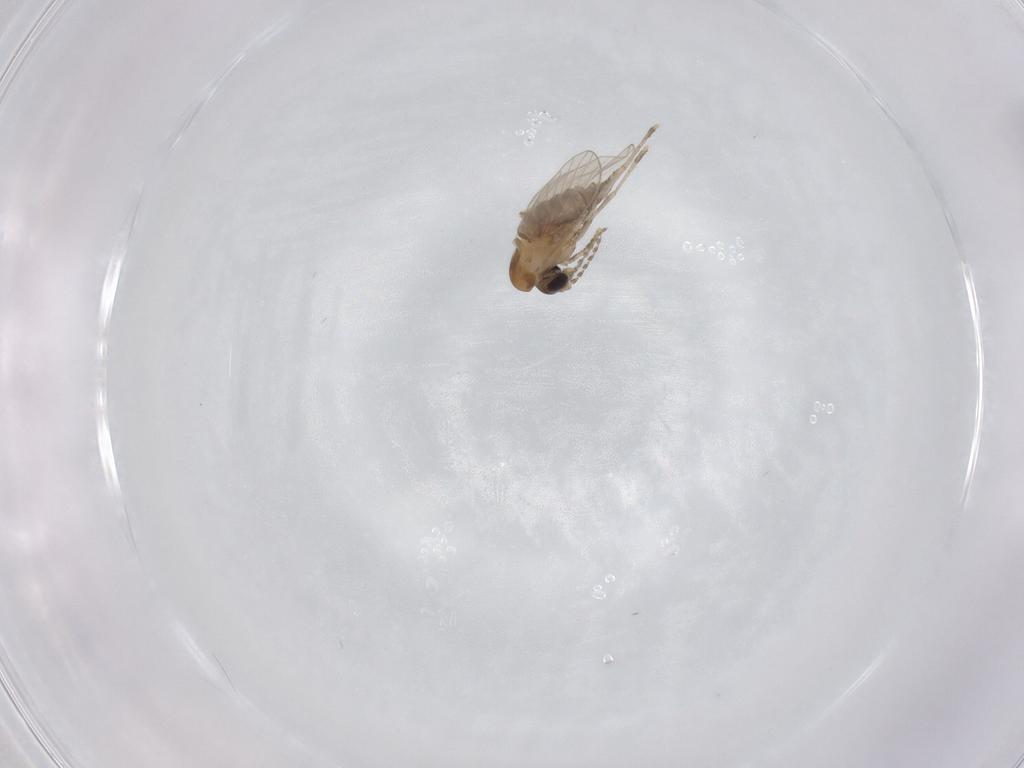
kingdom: Animalia
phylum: Arthropoda
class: Insecta
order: Diptera
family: Psychodidae
